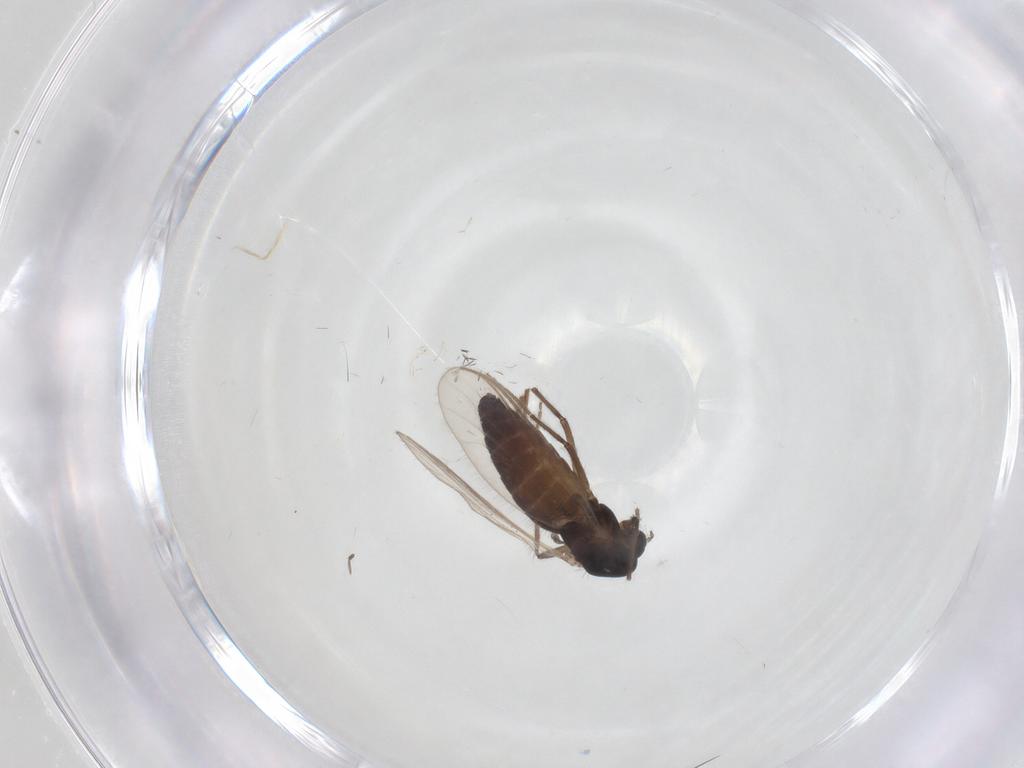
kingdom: Animalia
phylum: Arthropoda
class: Insecta
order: Diptera
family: Chironomidae
